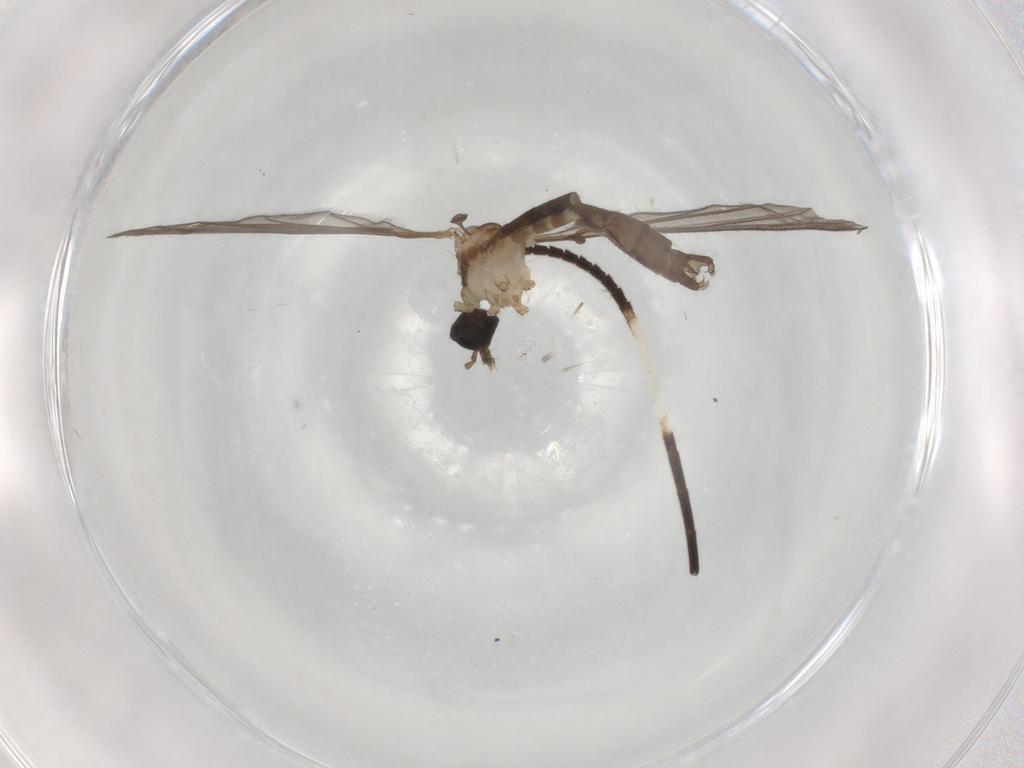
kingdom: Animalia
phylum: Arthropoda
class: Insecta
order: Diptera
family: Limoniidae
